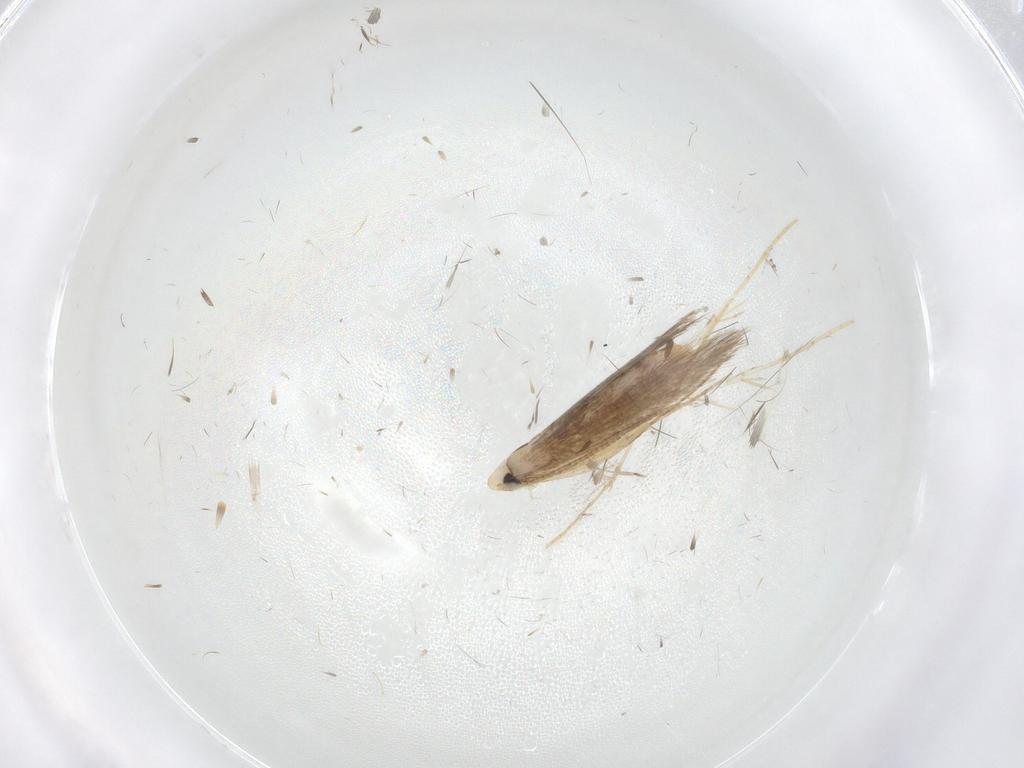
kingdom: Animalia
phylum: Arthropoda
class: Insecta
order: Lepidoptera
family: Psychidae
